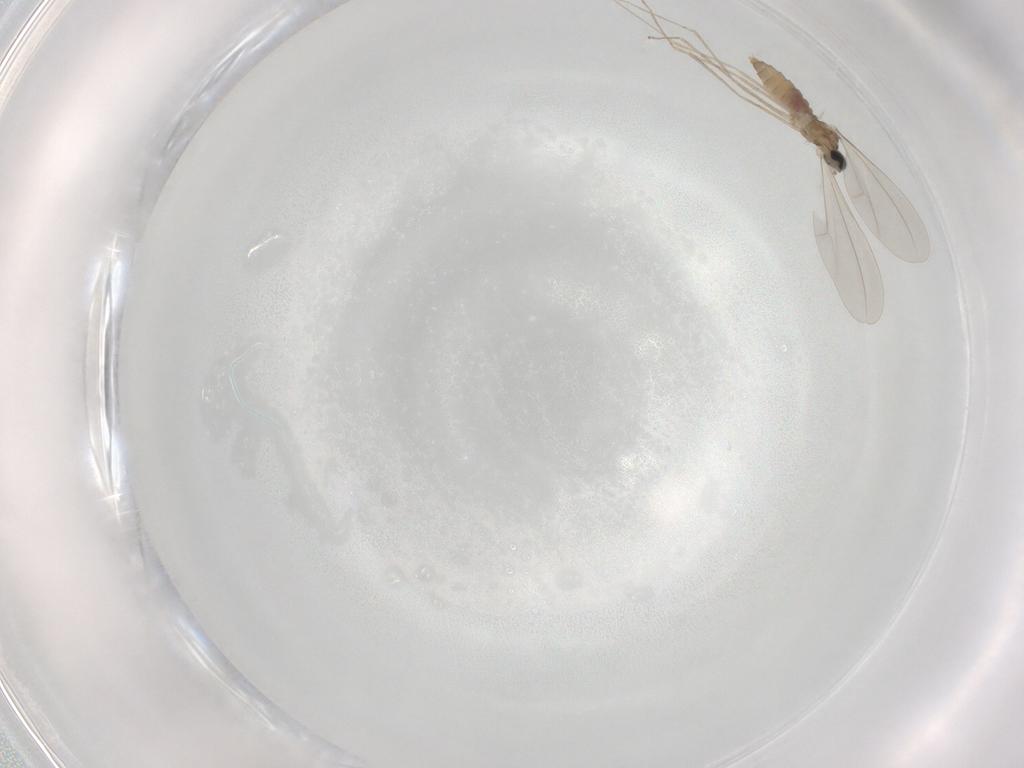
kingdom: Animalia
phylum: Arthropoda
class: Insecta
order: Diptera
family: Cecidomyiidae
